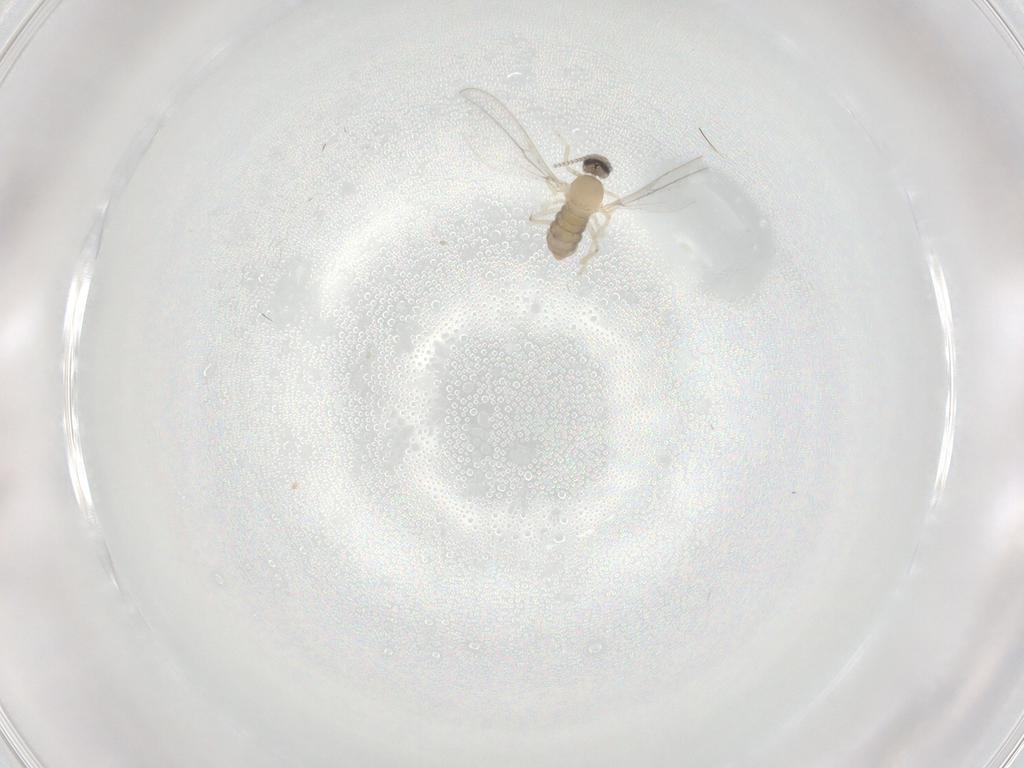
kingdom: Animalia
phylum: Arthropoda
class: Insecta
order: Diptera
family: Cecidomyiidae
